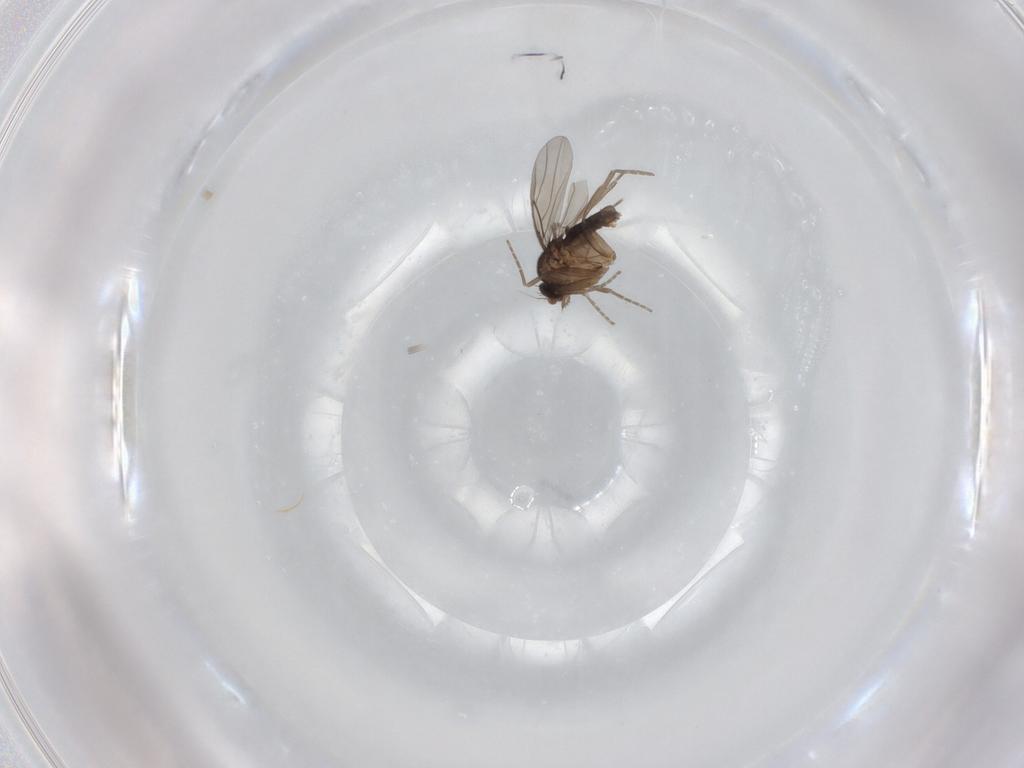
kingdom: Animalia
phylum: Arthropoda
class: Insecta
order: Diptera
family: Phoridae
